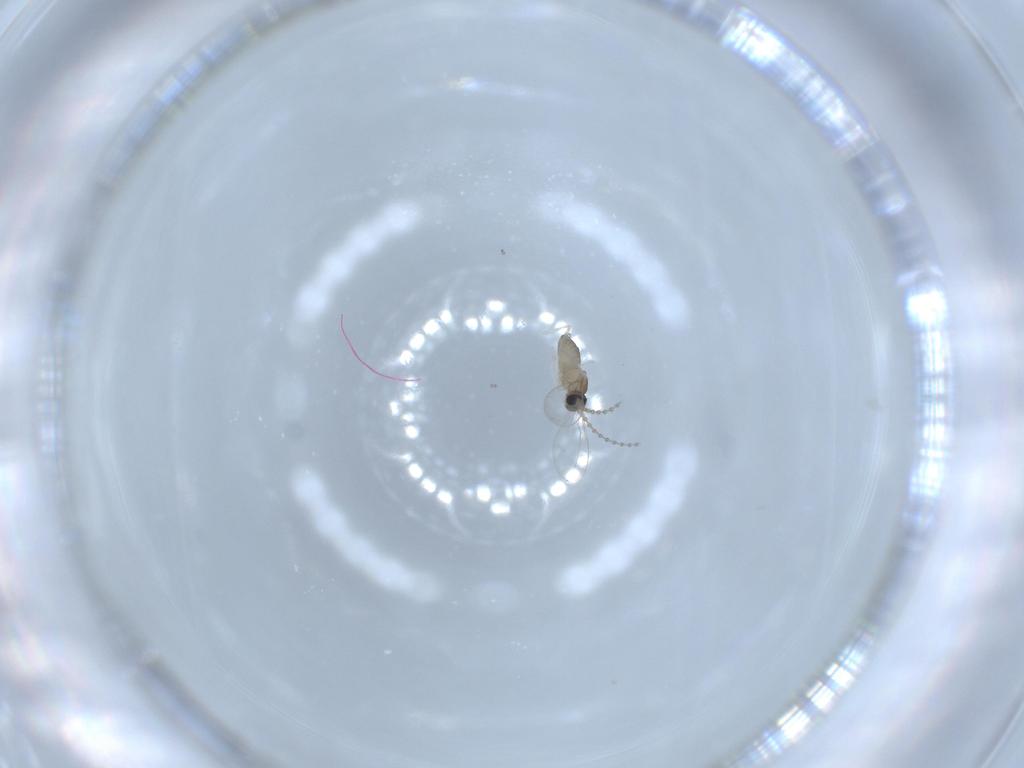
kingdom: Animalia
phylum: Arthropoda
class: Insecta
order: Diptera
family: Cecidomyiidae
